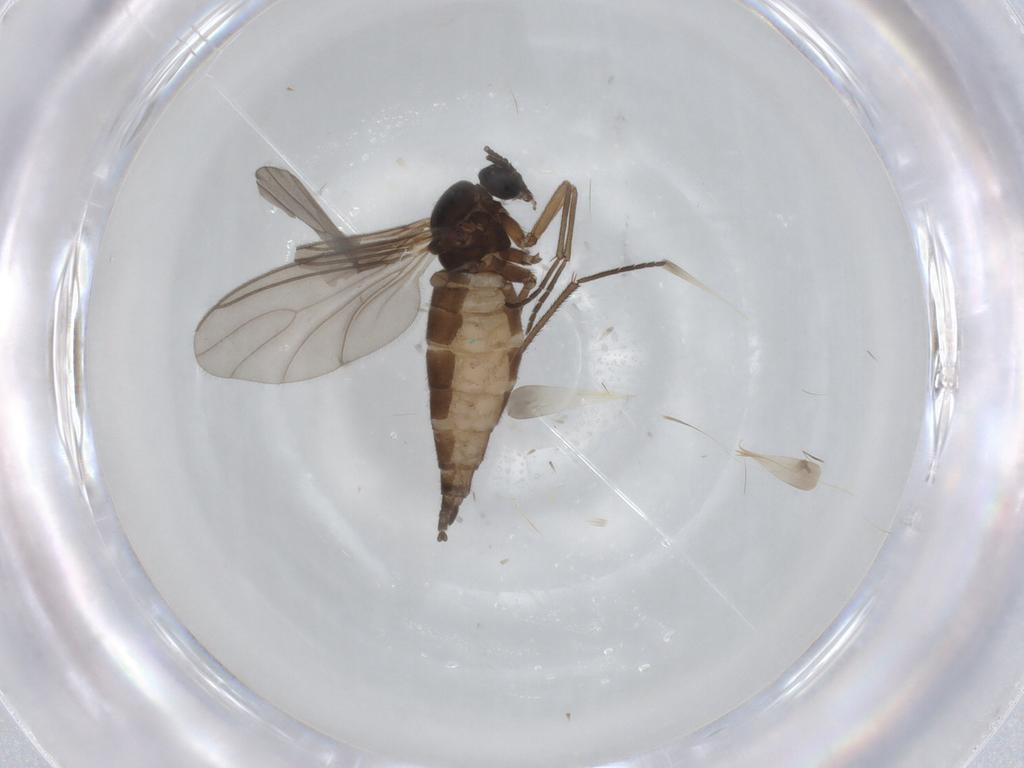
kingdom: Animalia
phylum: Arthropoda
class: Insecta
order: Diptera
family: Sciaridae
